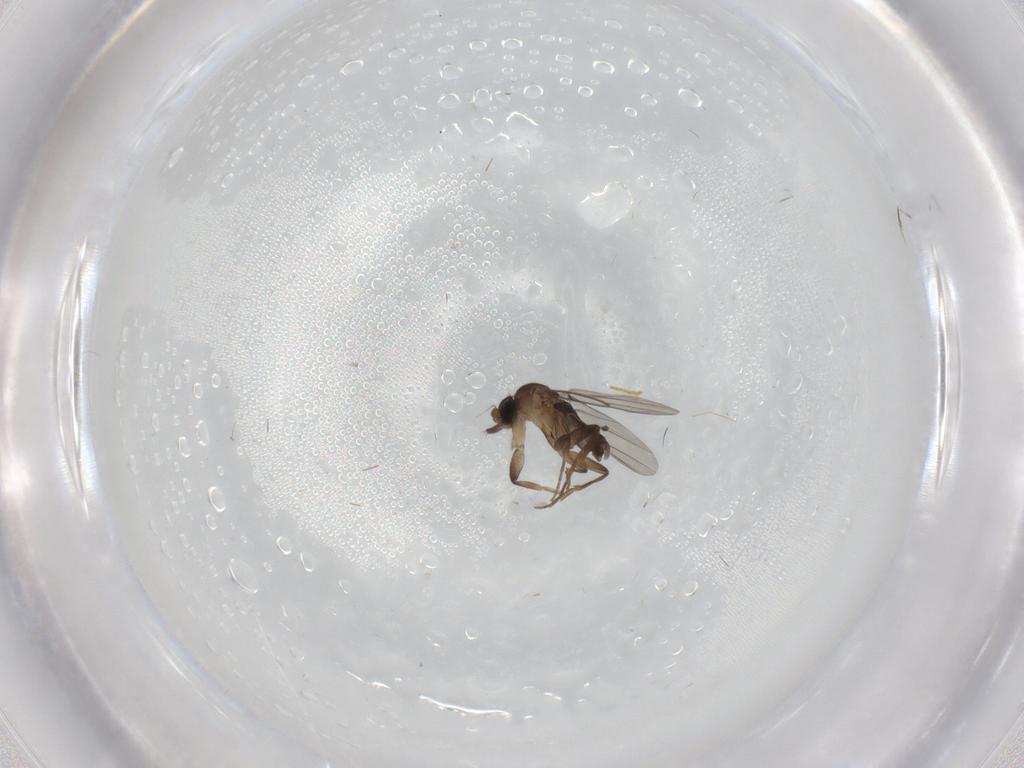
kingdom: Animalia
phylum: Arthropoda
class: Insecta
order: Diptera
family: Phoridae
